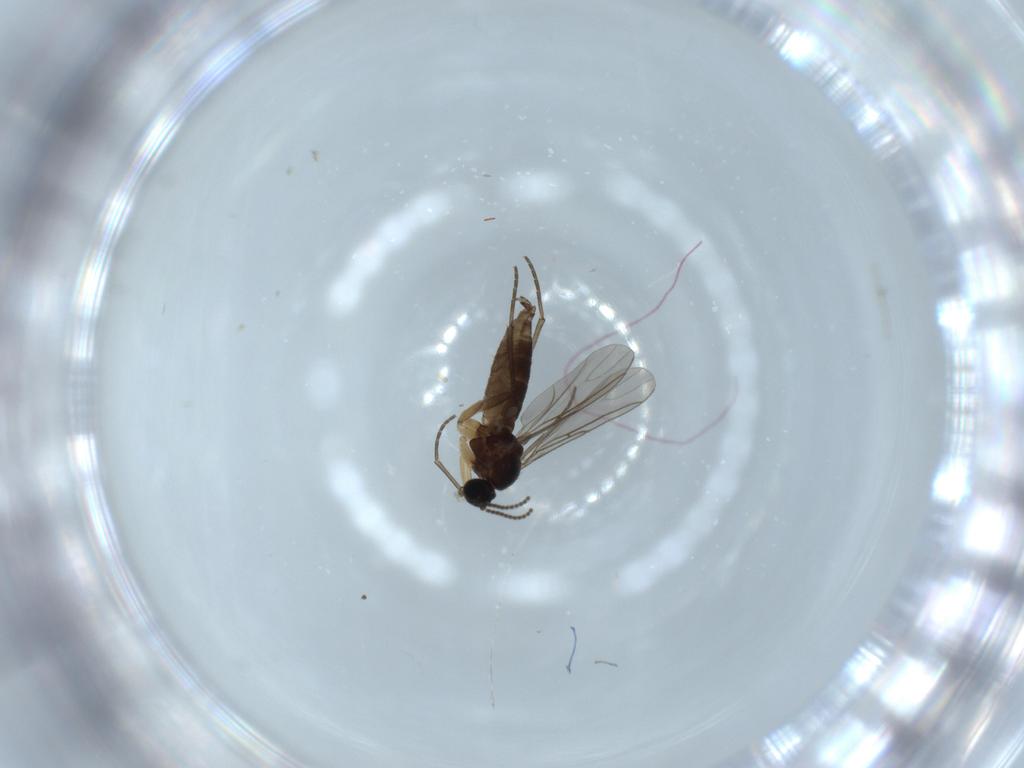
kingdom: Animalia
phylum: Arthropoda
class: Insecta
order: Diptera
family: Sciaridae
